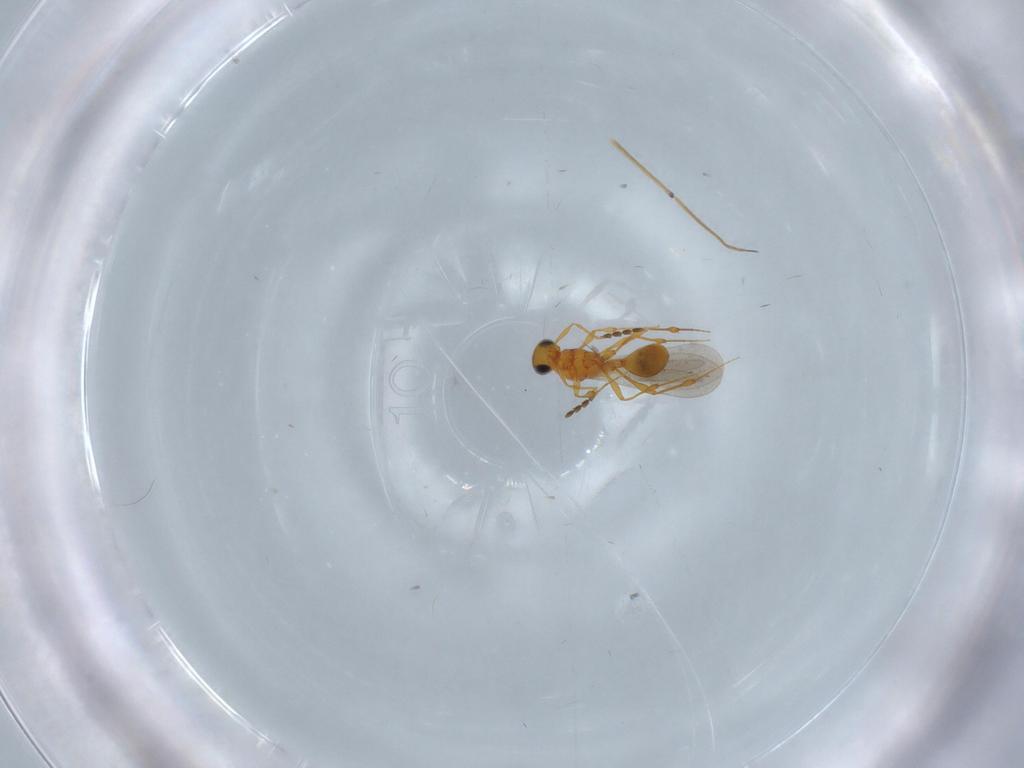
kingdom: Animalia
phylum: Arthropoda
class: Insecta
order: Hymenoptera
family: Platygastridae
